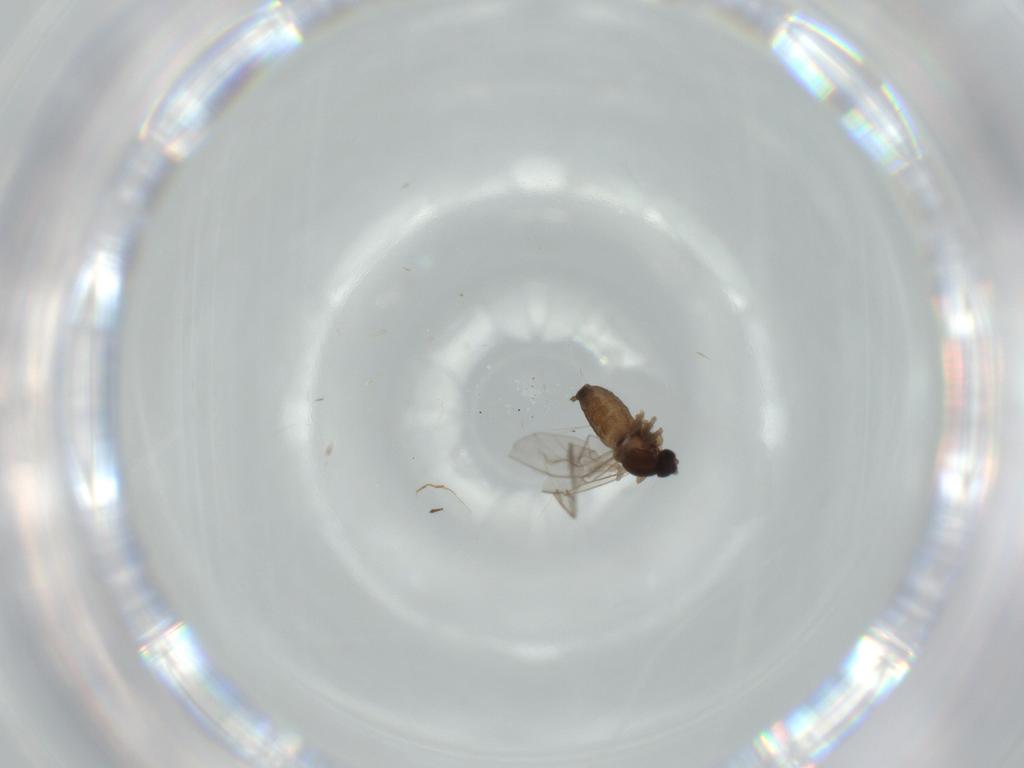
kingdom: Animalia
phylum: Arthropoda
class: Insecta
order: Diptera
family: Cecidomyiidae
